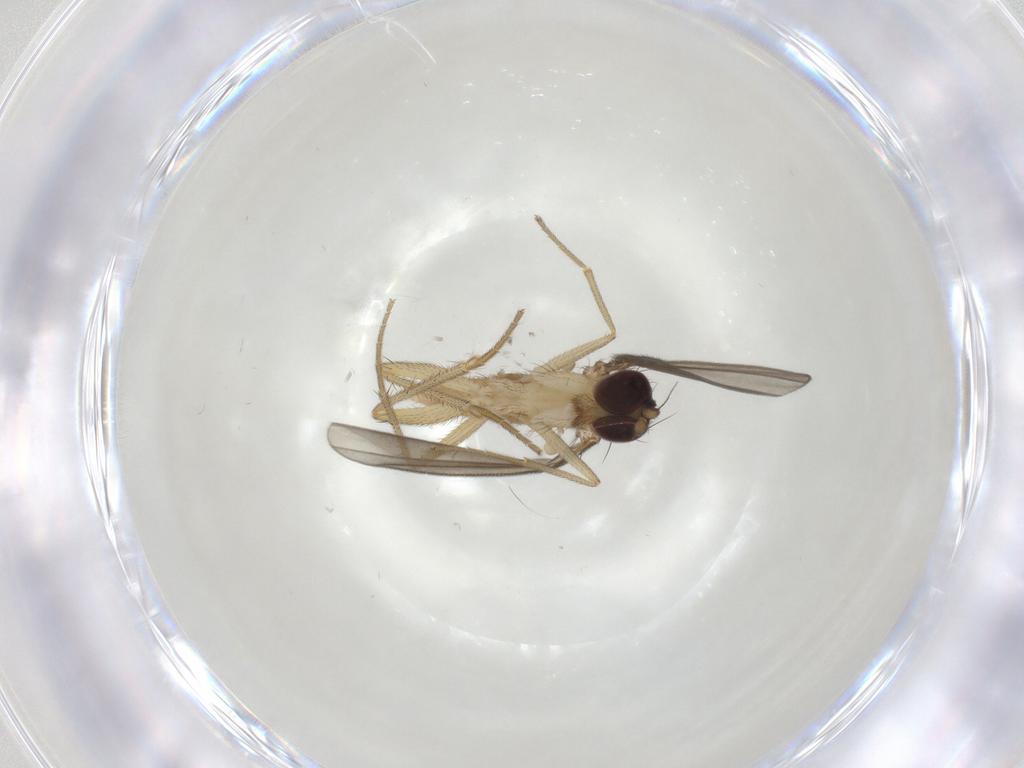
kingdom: Animalia
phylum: Arthropoda
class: Insecta
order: Diptera
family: Dolichopodidae
